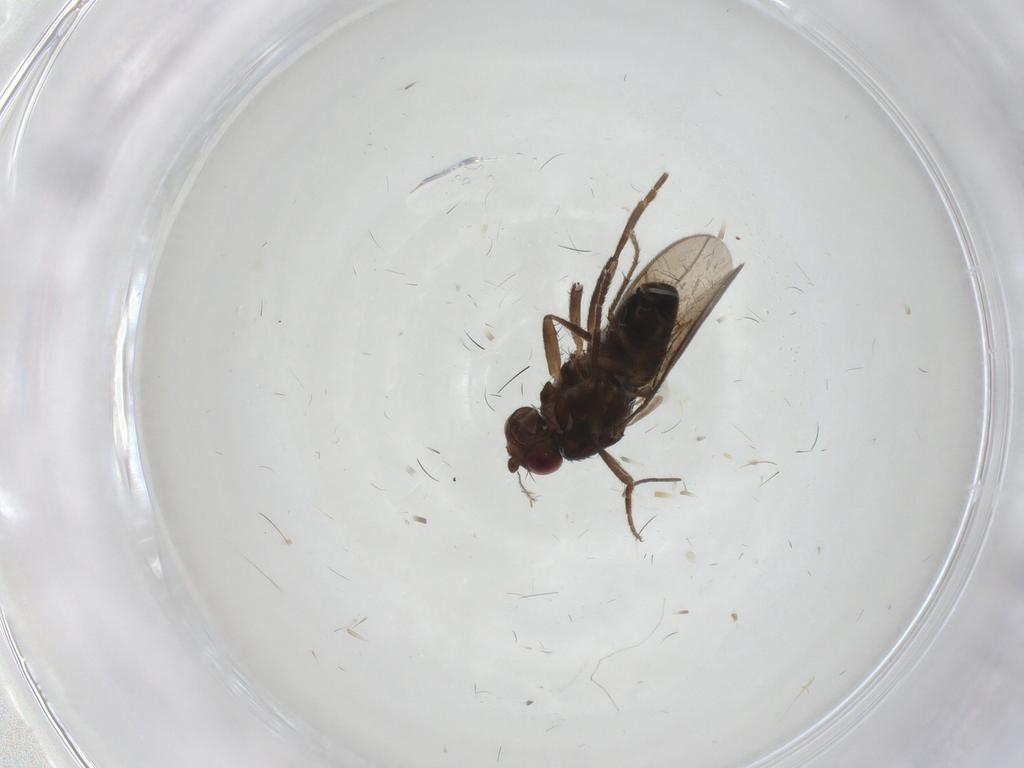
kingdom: Animalia
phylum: Arthropoda
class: Insecta
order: Diptera
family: Dolichopodidae
